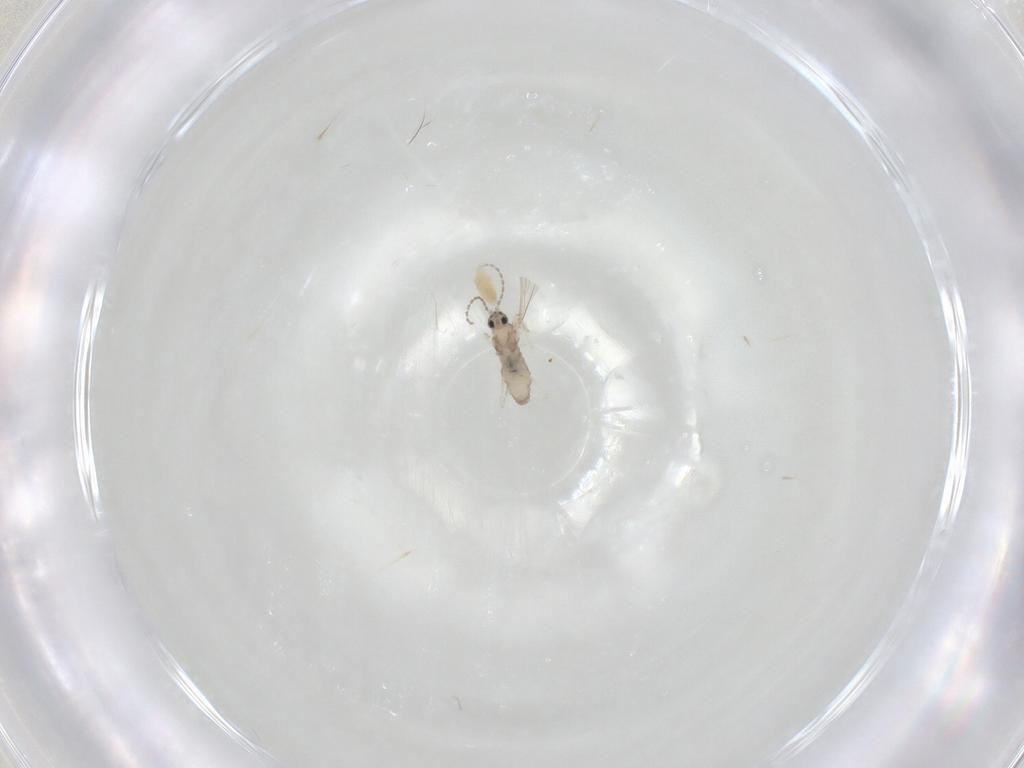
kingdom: Animalia
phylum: Arthropoda
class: Insecta
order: Diptera
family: Cecidomyiidae
